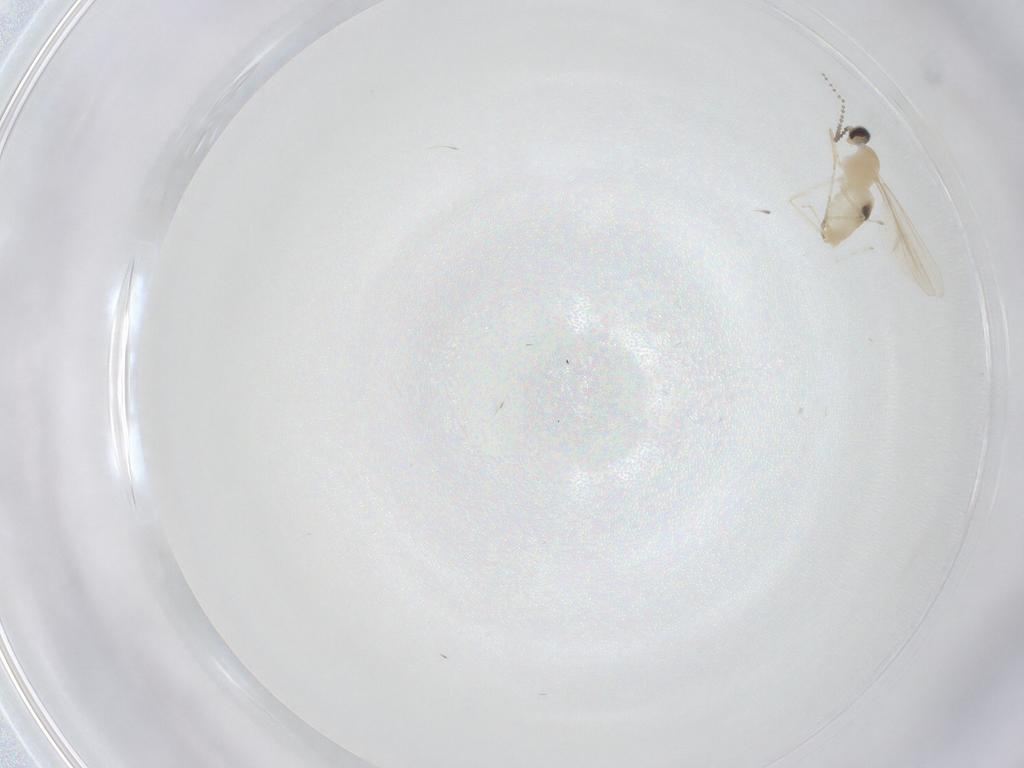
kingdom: Animalia
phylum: Arthropoda
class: Insecta
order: Diptera
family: Cecidomyiidae
